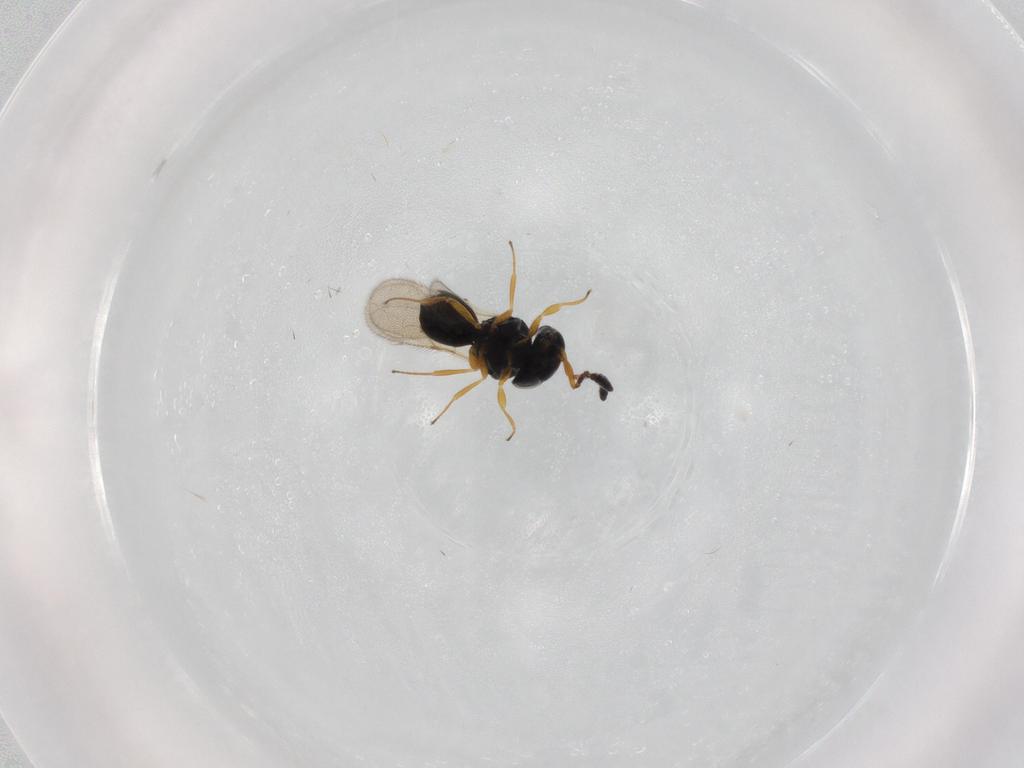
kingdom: Animalia
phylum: Arthropoda
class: Insecta
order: Hymenoptera
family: Scelionidae
